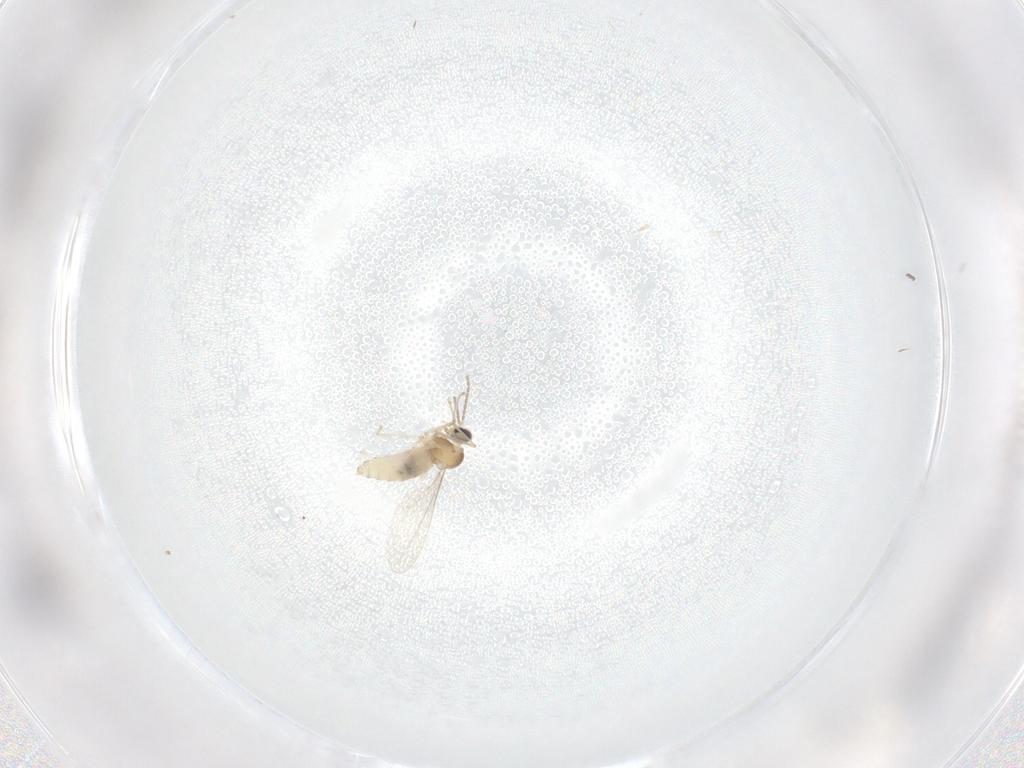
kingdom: Animalia
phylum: Arthropoda
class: Insecta
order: Diptera
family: Cecidomyiidae
